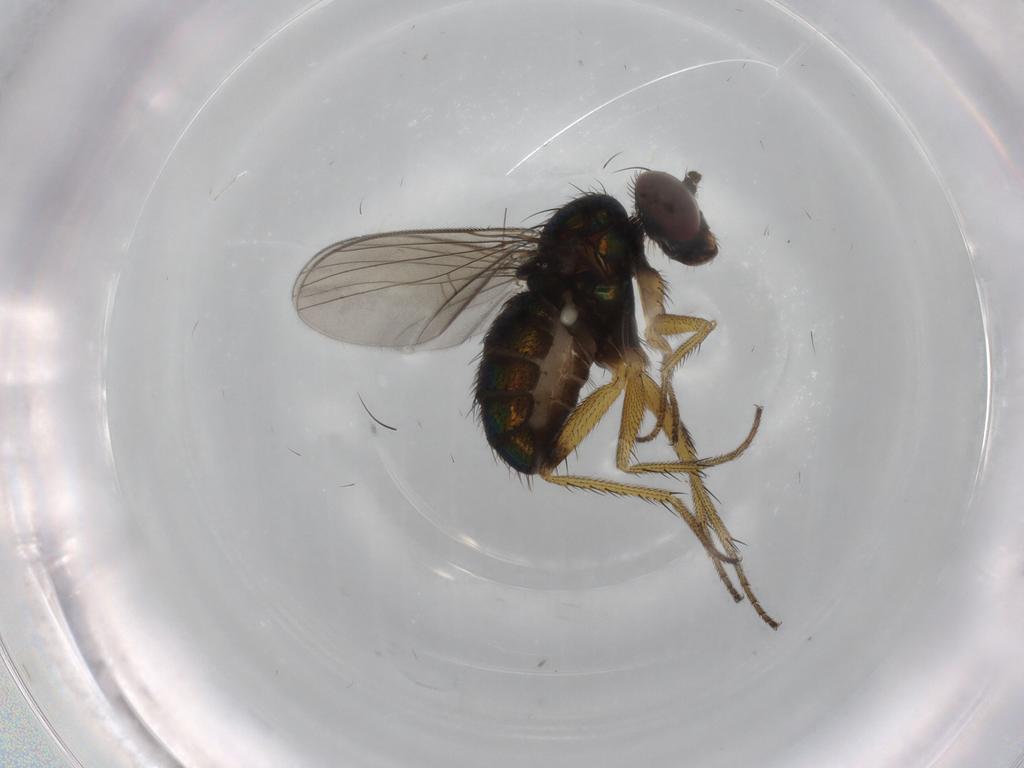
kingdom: Animalia
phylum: Arthropoda
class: Insecta
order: Diptera
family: Dolichopodidae
